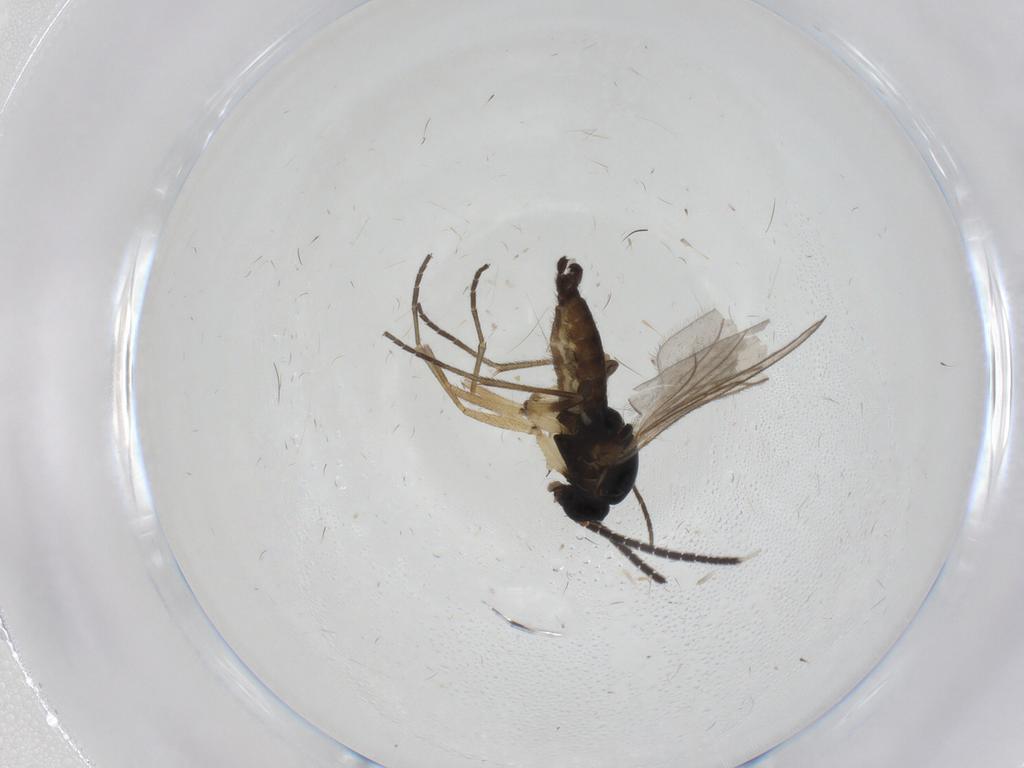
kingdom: Animalia
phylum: Arthropoda
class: Insecta
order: Diptera
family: Sciaridae
